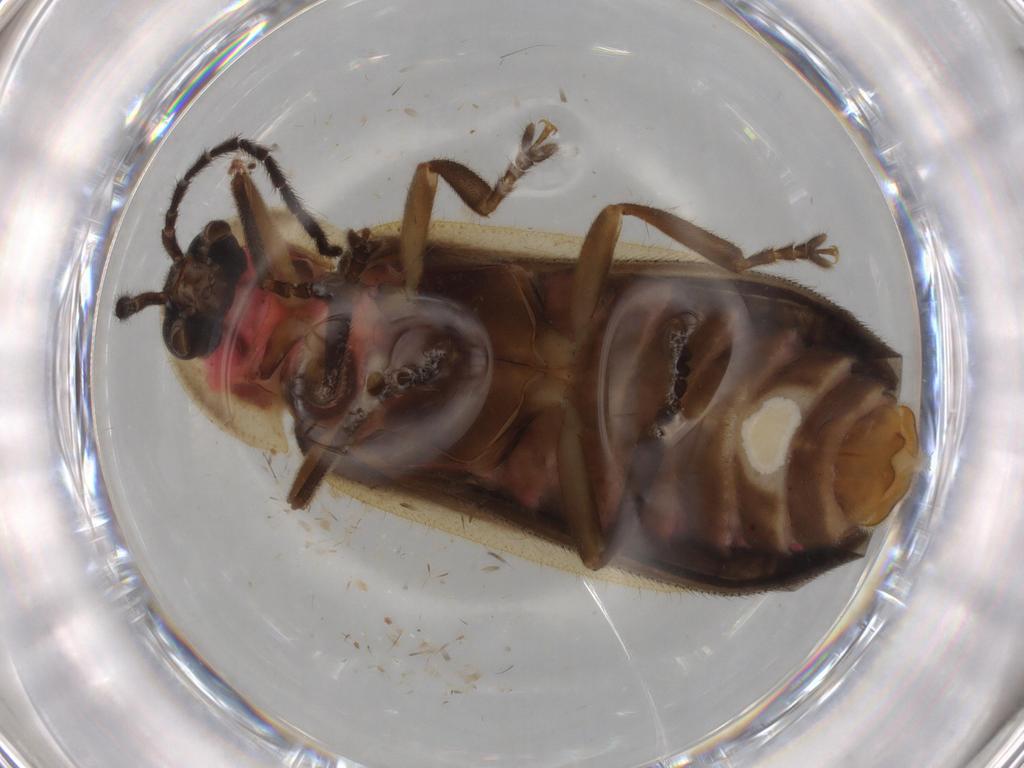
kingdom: Animalia
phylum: Arthropoda
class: Insecta
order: Coleoptera
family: Lampyridae
